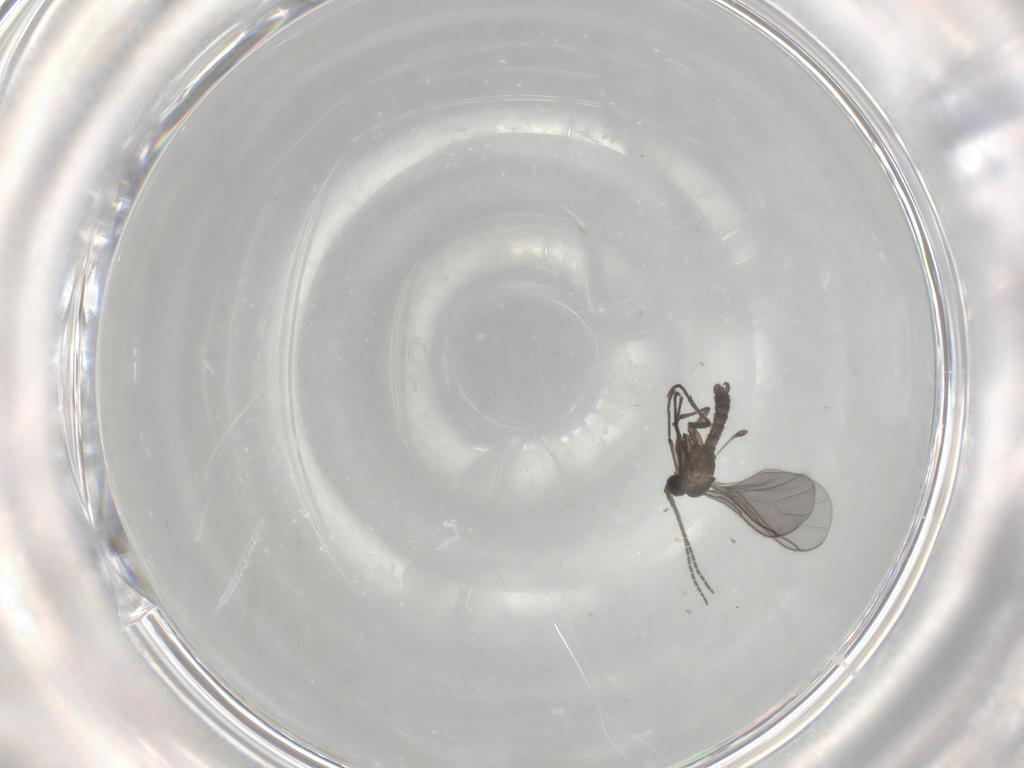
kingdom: Animalia
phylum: Arthropoda
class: Insecta
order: Diptera
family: Sciaridae
